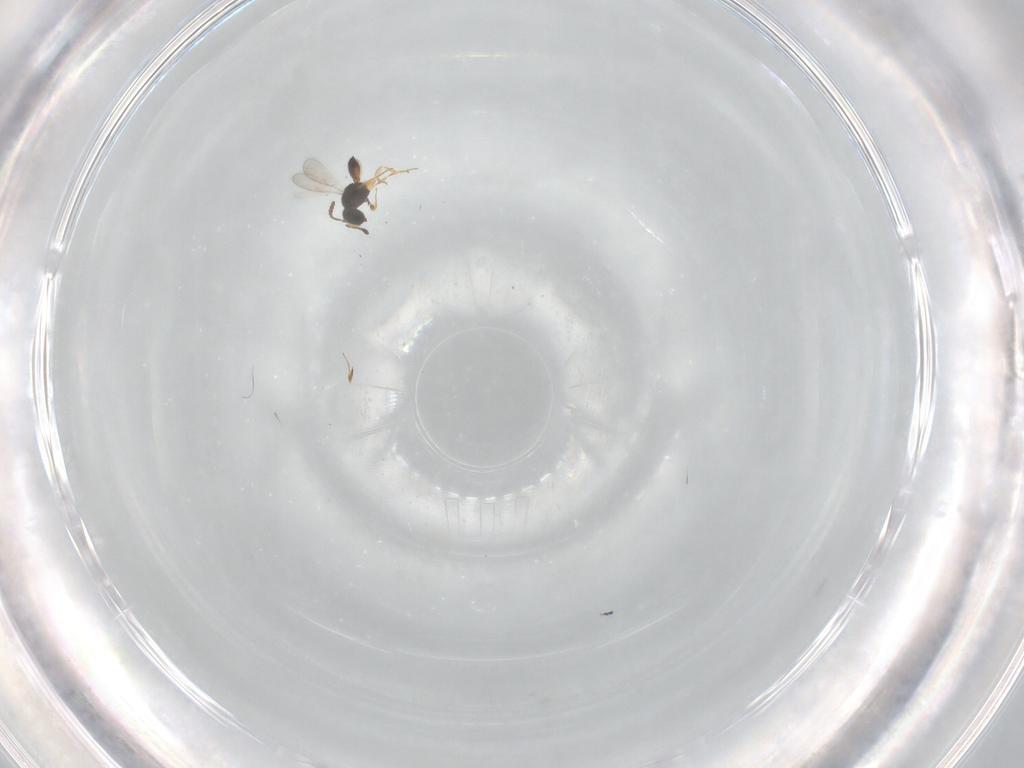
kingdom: Animalia
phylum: Arthropoda
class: Insecta
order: Hymenoptera
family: Scelionidae
